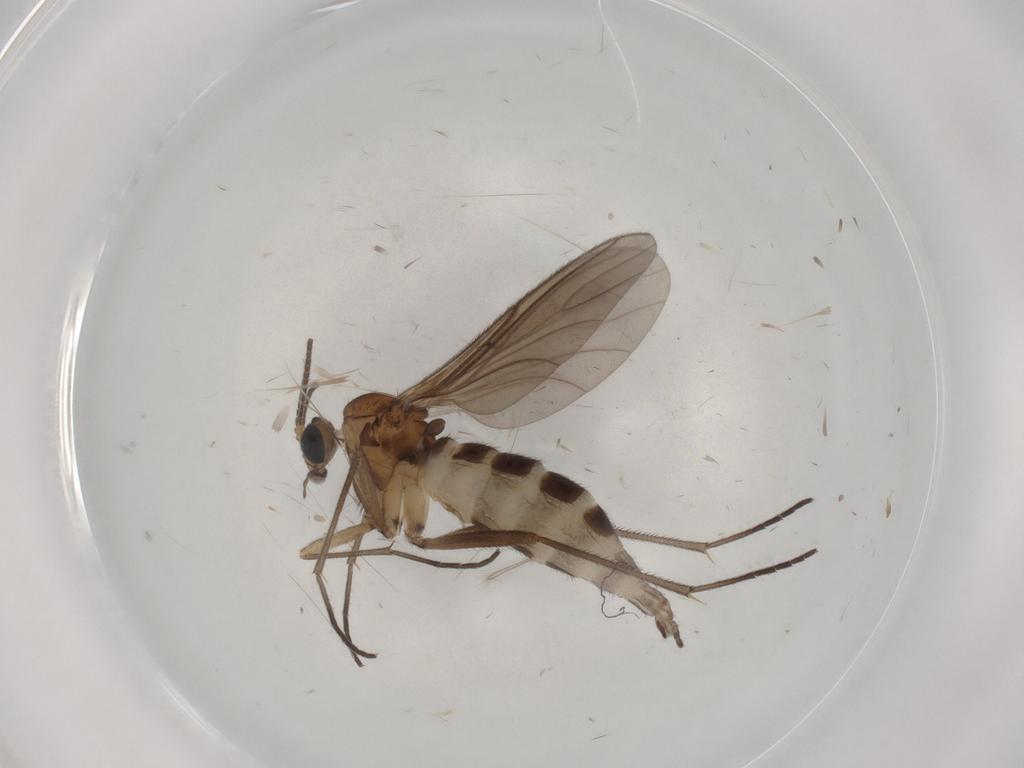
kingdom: Animalia
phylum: Arthropoda
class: Insecta
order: Diptera
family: Sciaridae
